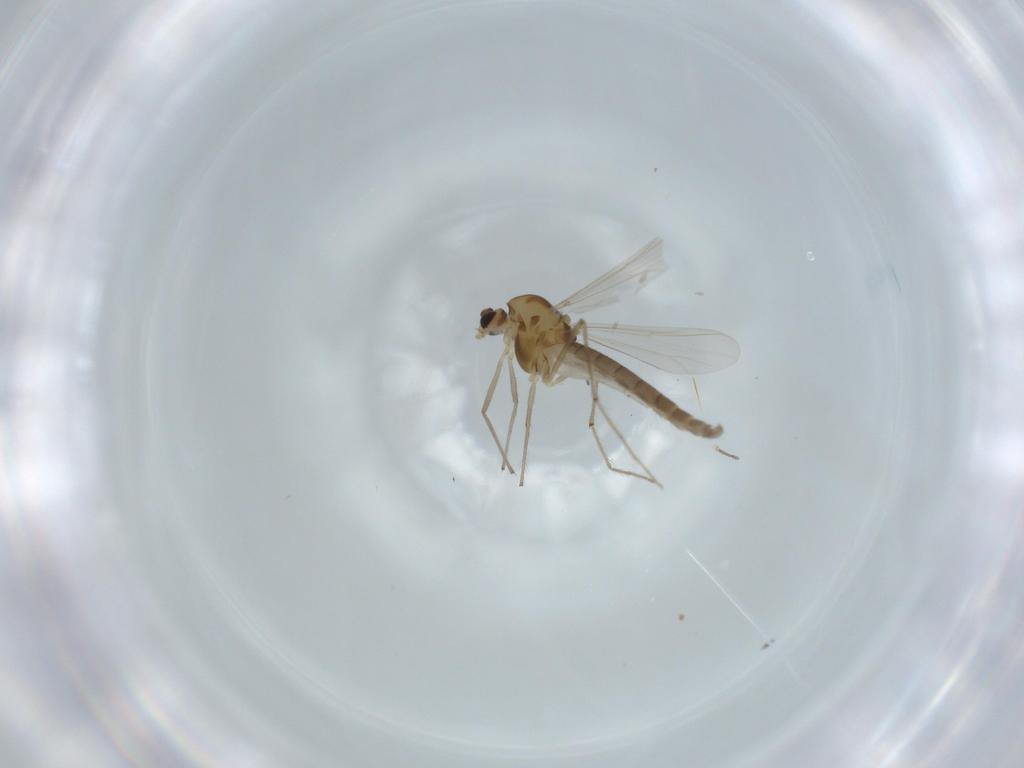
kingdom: Animalia
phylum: Arthropoda
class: Insecta
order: Diptera
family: Chironomidae
